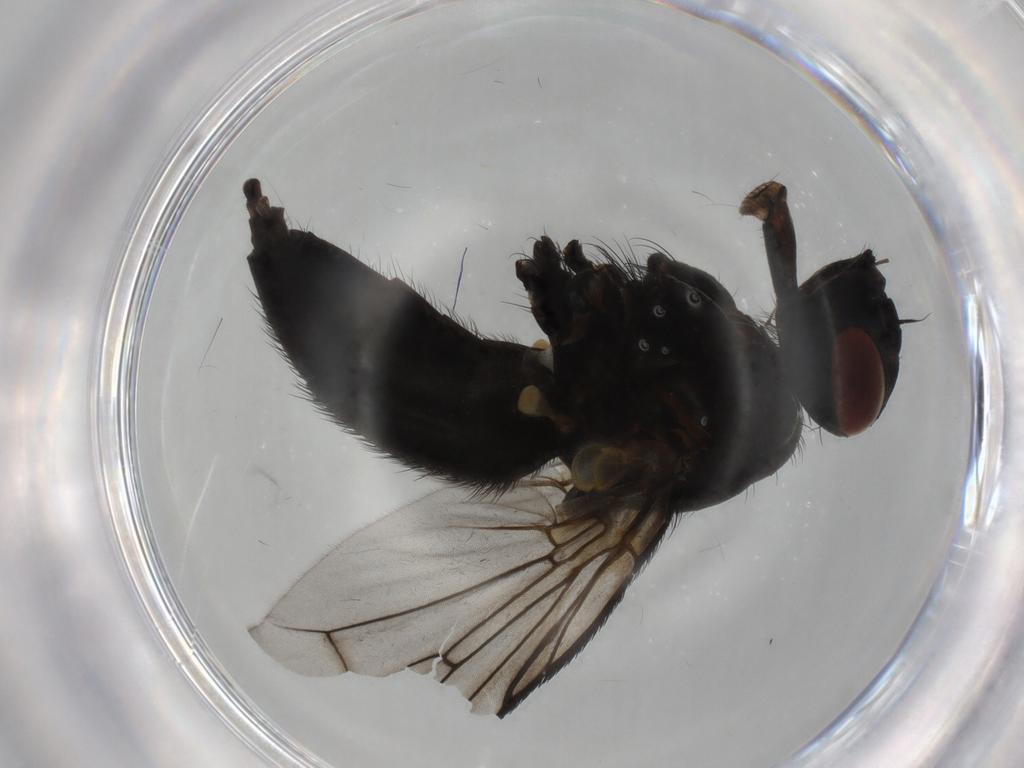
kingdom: Animalia
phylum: Arthropoda
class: Insecta
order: Diptera
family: Muscidae
